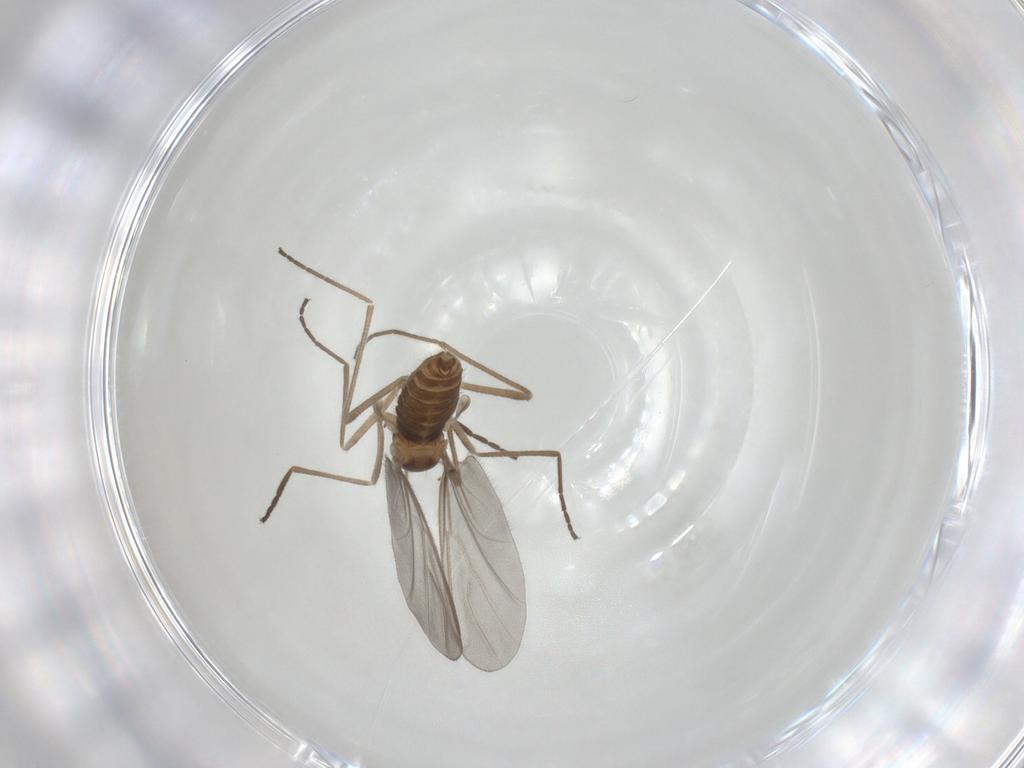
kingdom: Animalia
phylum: Arthropoda
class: Insecta
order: Diptera
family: Cecidomyiidae
